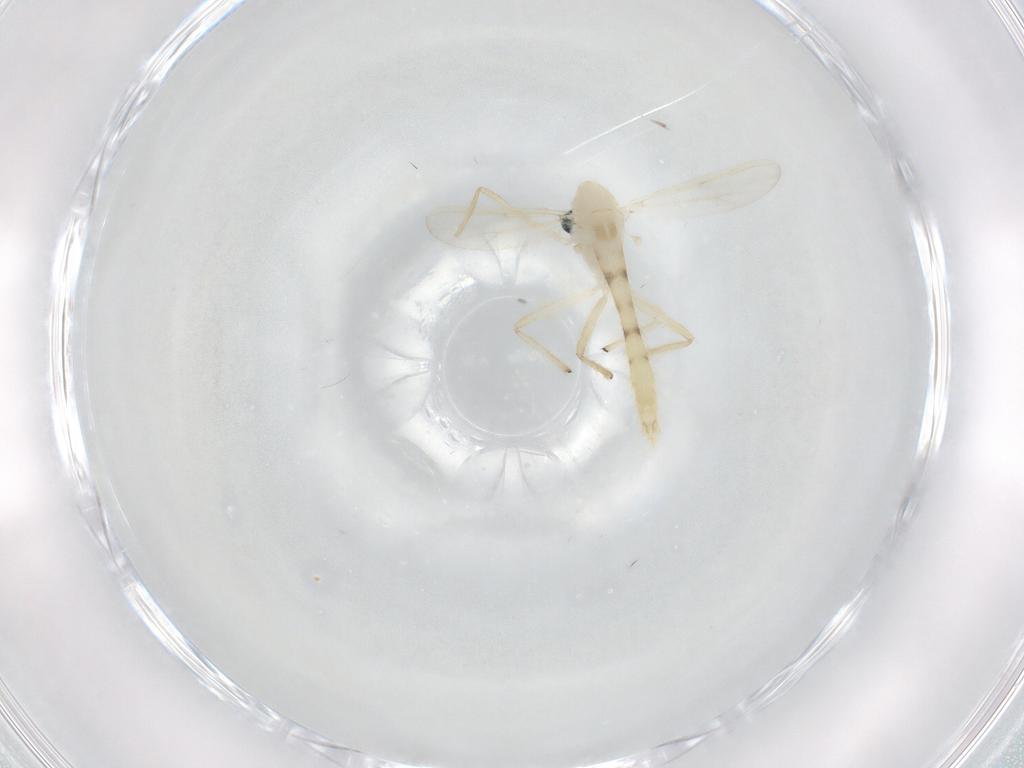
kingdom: Animalia
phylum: Arthropoda
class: Insecta
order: Diptera
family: Chironomidae
